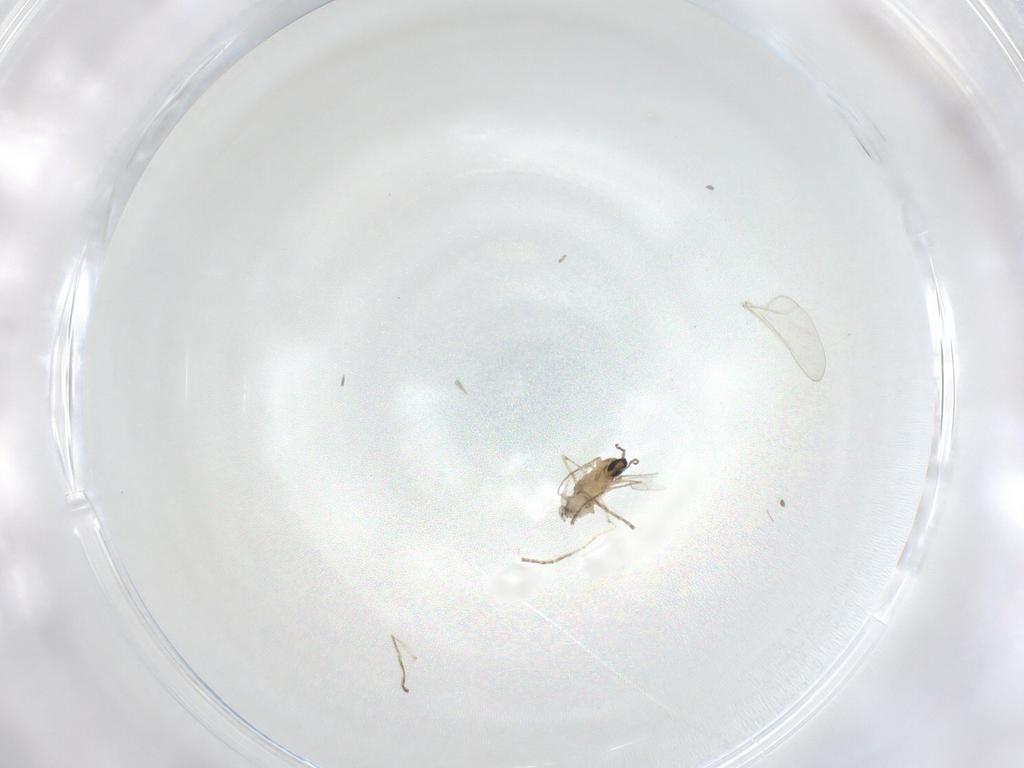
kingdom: Animalia
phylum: Arthropoda
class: Insecta
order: Diptera
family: Cecidomyiidae
